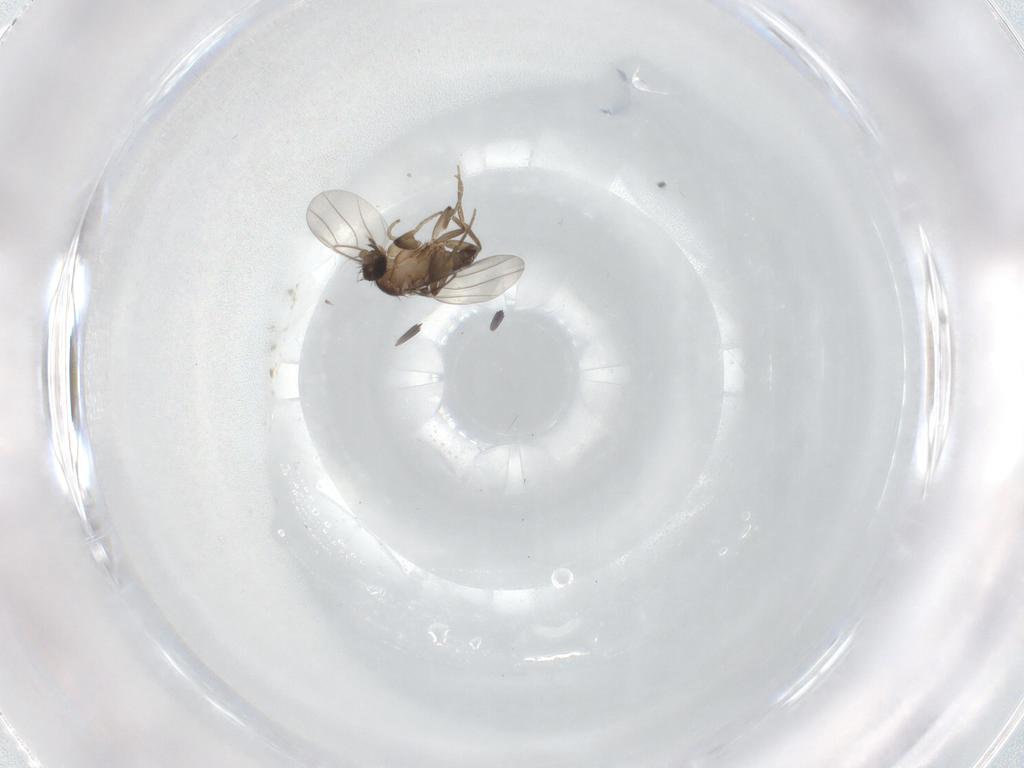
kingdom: Animalia
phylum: Arthropoda
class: Insecta
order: Diptera
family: Phoridae
